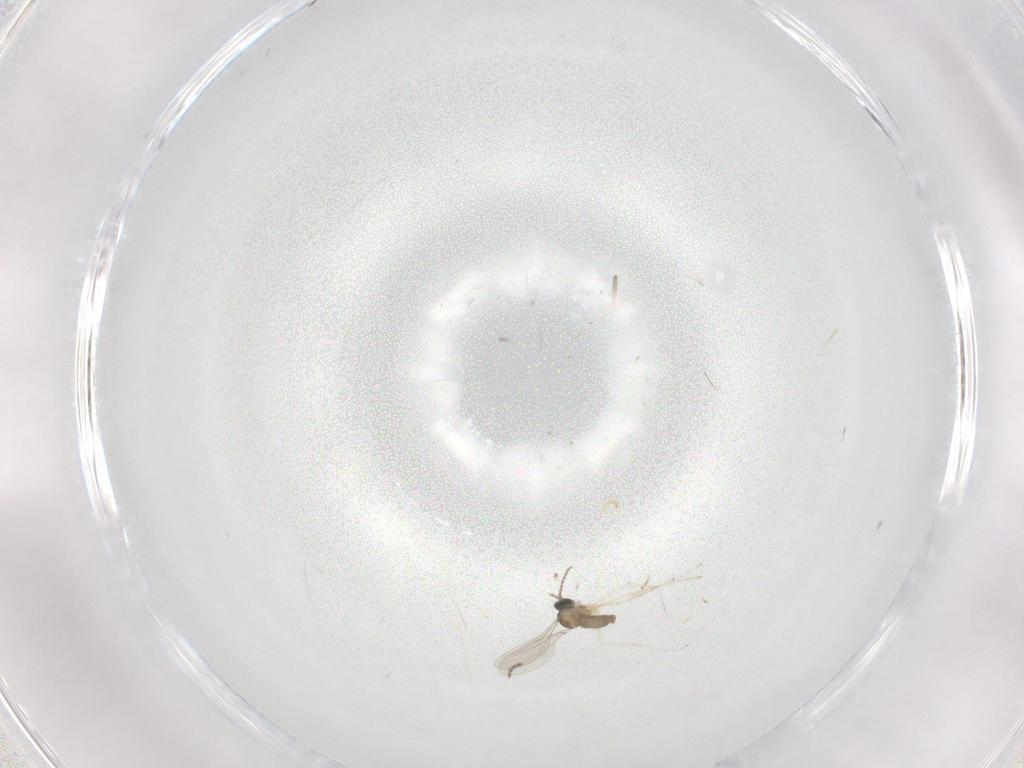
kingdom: Animalia
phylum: Arthropoda
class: Insecta
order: Diptera
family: Cecidomyiidae
